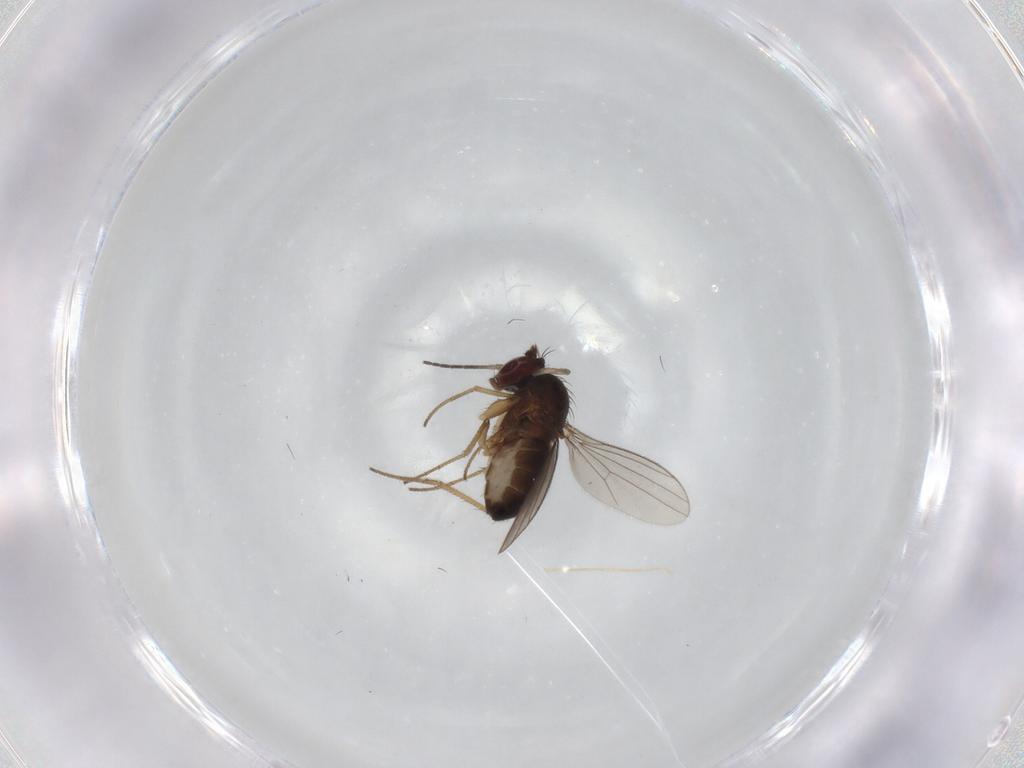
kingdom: Animalia
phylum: Arthropoda
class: Insecta
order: Diptera
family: Dolichopodidae
